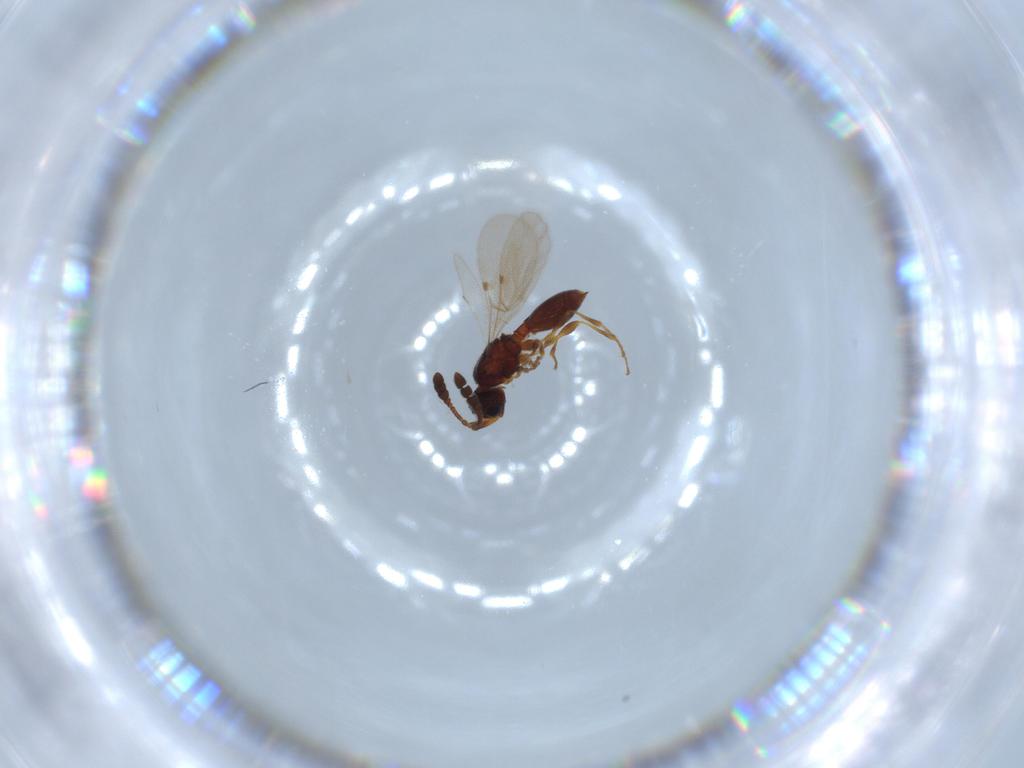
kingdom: Animalia
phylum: Arthropoda
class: Insecta
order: Hymenoptera
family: Diapriidae
